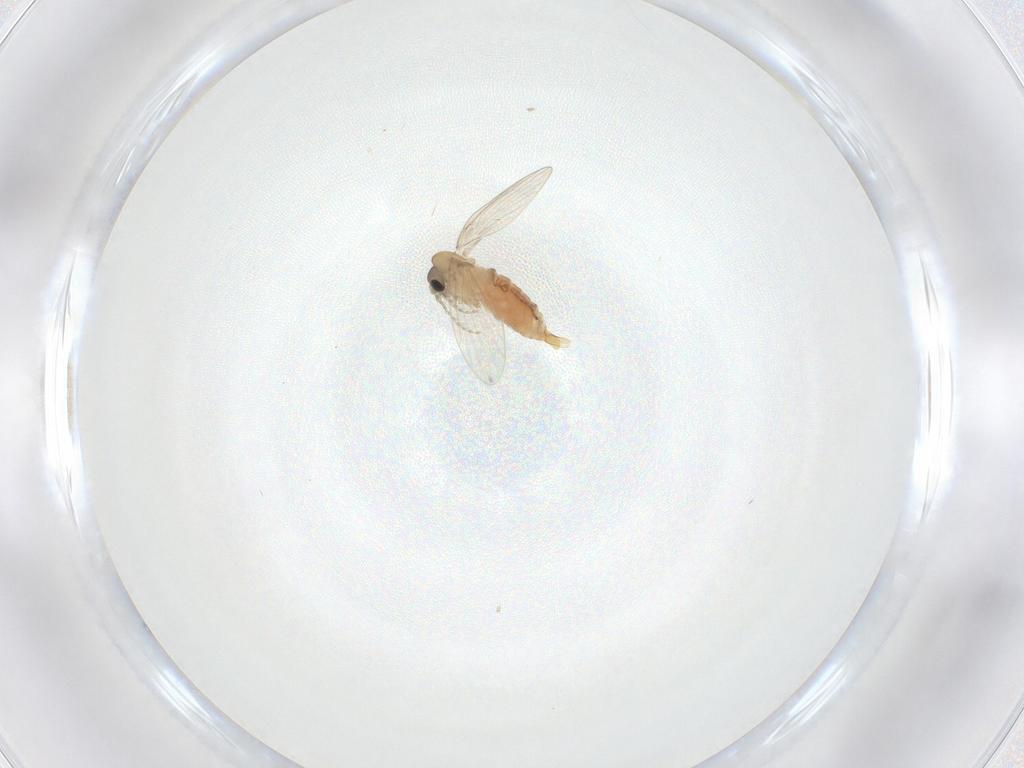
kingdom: Animalia
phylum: Arthropoda
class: Insecta
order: Diptera
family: Psychodidae
